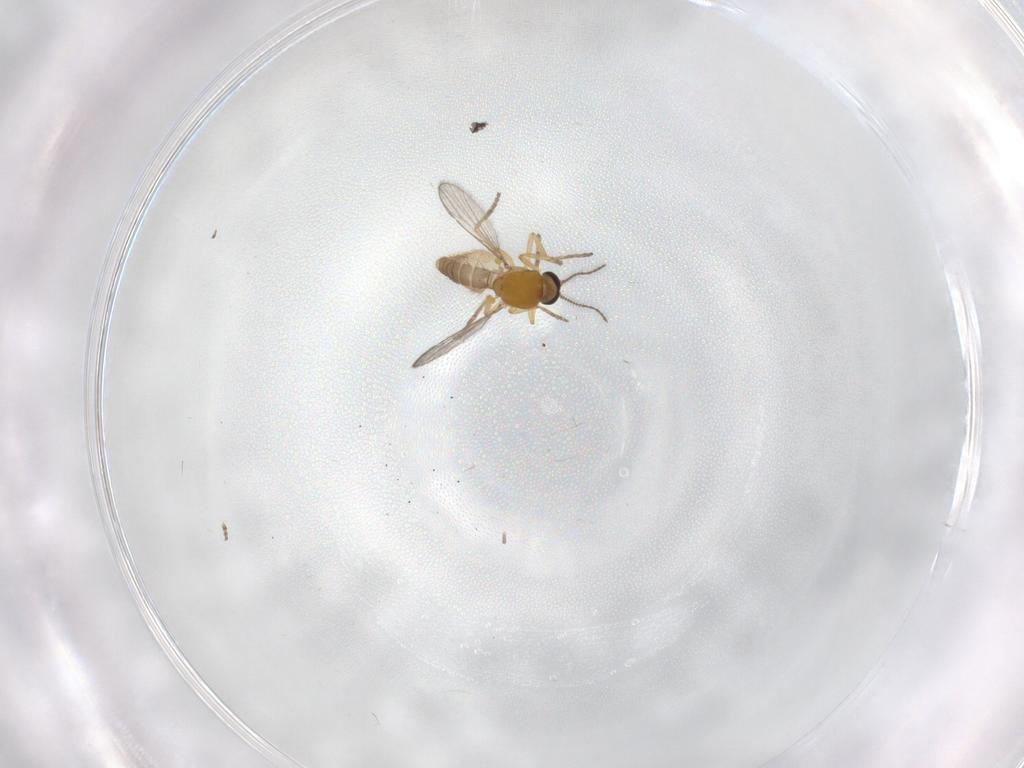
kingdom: Animalia
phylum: Arthropoda
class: Insecta
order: Diptera
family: Ceratopogonidae
